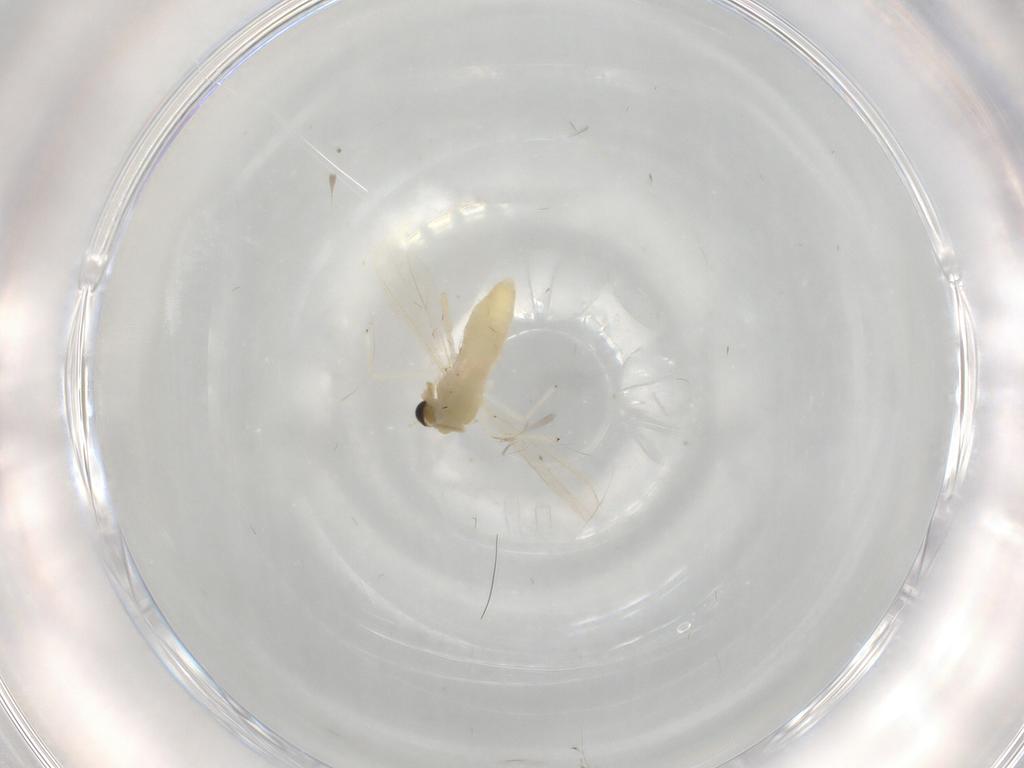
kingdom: Animalia
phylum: Arthropoda
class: Insecta
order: Diptera
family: Chironomidae
